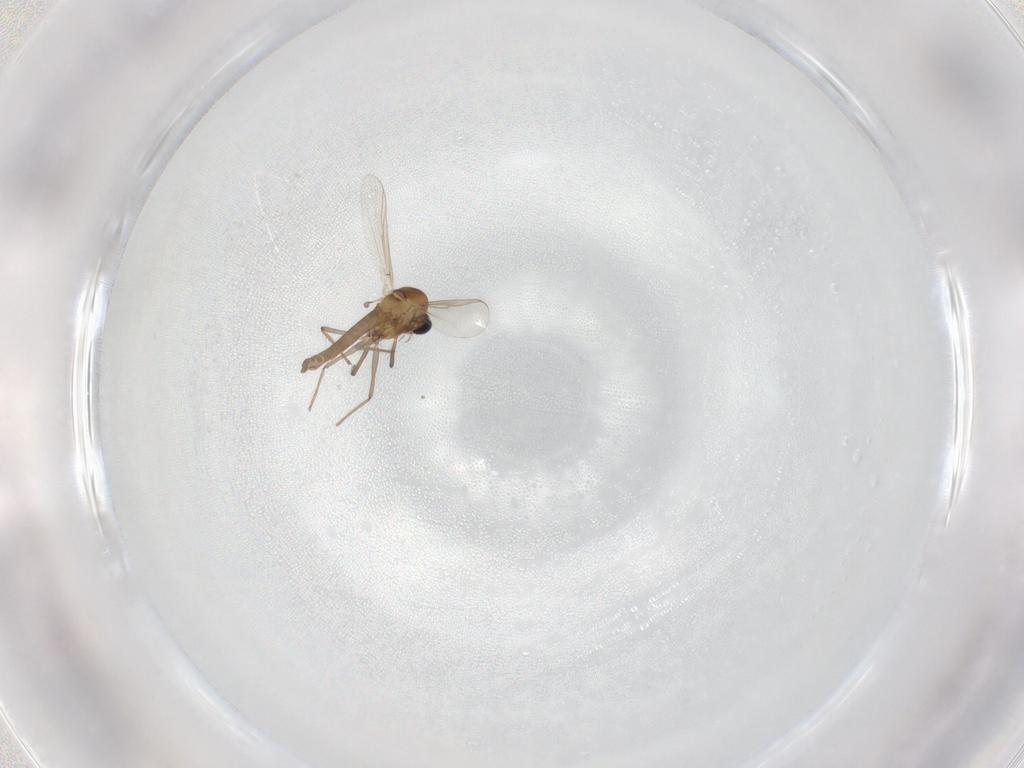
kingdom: Animalia
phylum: Arthropoda
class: Insecta
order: Diptera
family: Chironomidae
